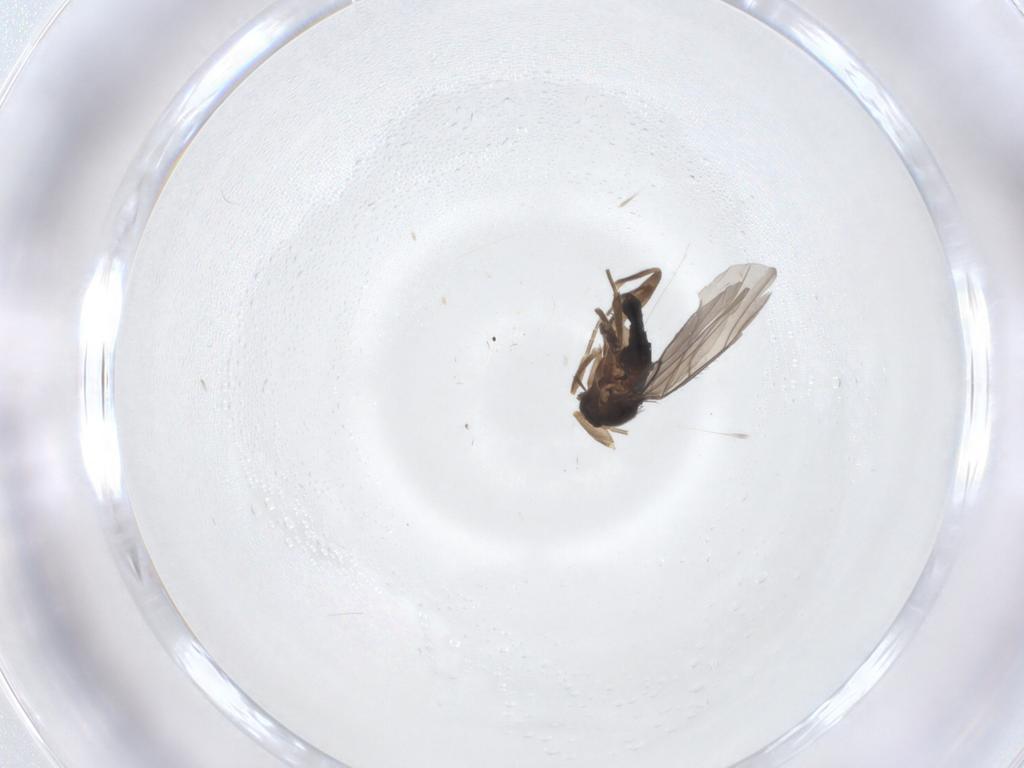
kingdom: Animalia
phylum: Arthropoda
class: Insecta
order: Diptera
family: Phoridae
